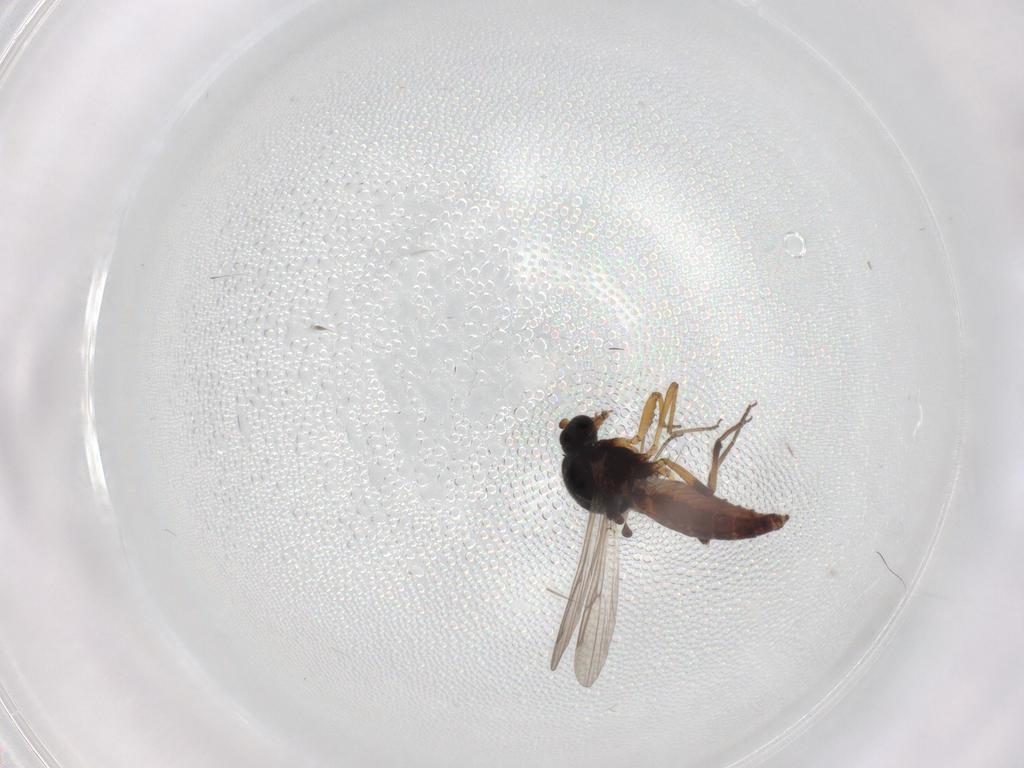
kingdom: Animalia
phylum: Arthropoda
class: Insecta
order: Diptera
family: Ceratopogonidae
